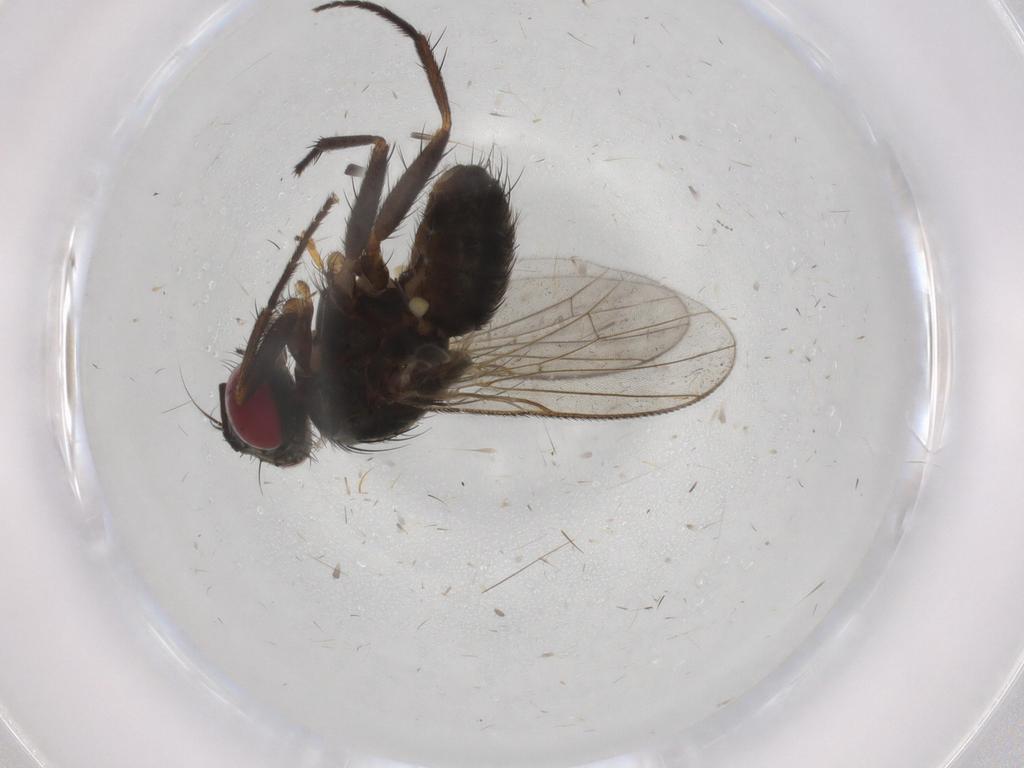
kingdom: Animalia
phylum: Arthropoda
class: Insecta
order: Diptera
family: Muscidae
